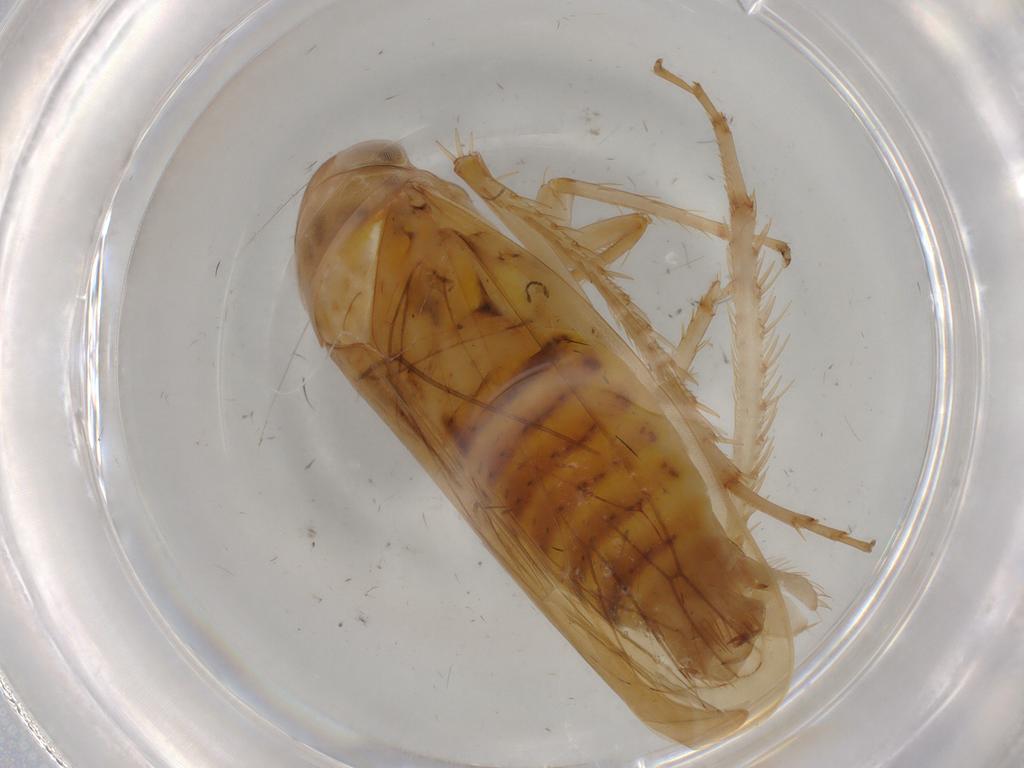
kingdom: Animalia
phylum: Arthropoda
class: Insecta
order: Hemiptera
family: Cicadellidae
